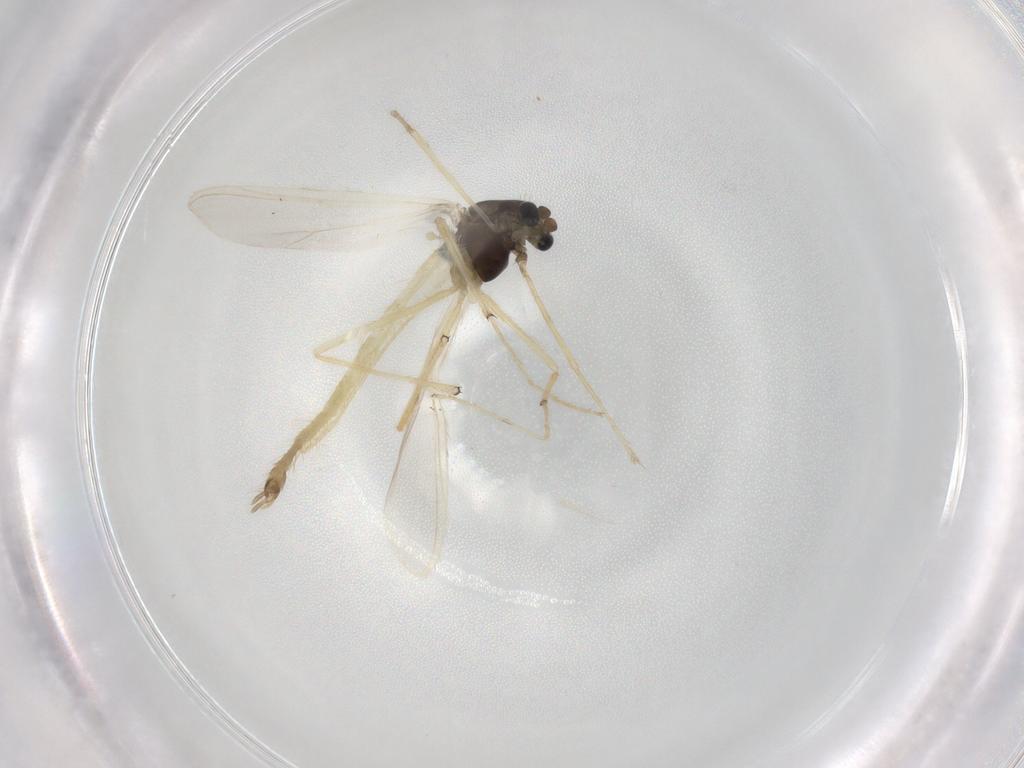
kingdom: Animalia
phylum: Arthropoda
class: Insecta
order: Diptera
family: Chironomidae
